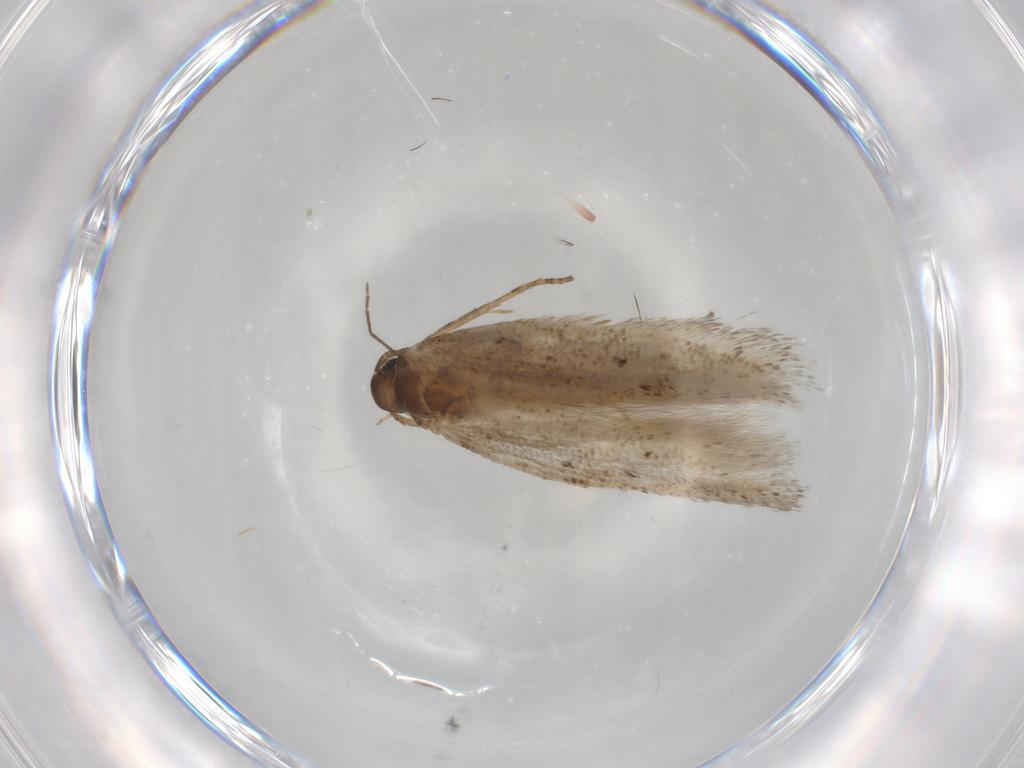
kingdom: Animalia
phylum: Arthropoda
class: Insecta
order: Lepidoptera
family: Gelechiidae
